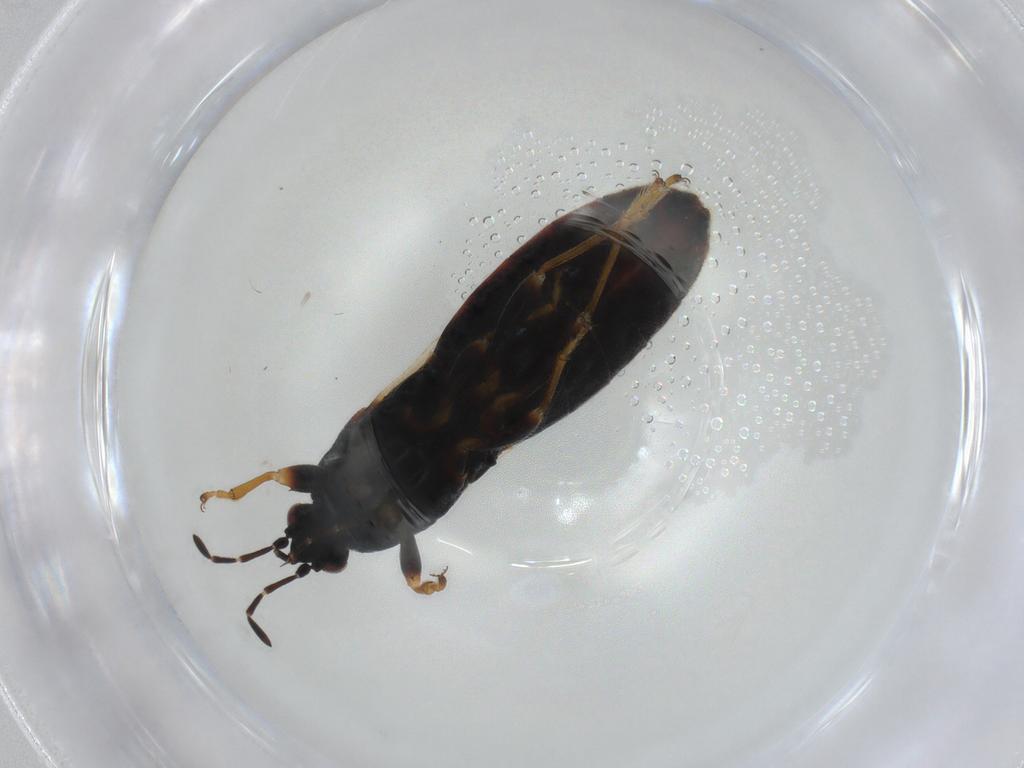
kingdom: Animalia
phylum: Arthropoda
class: Insecta
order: Hemiptera
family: Blissidae
